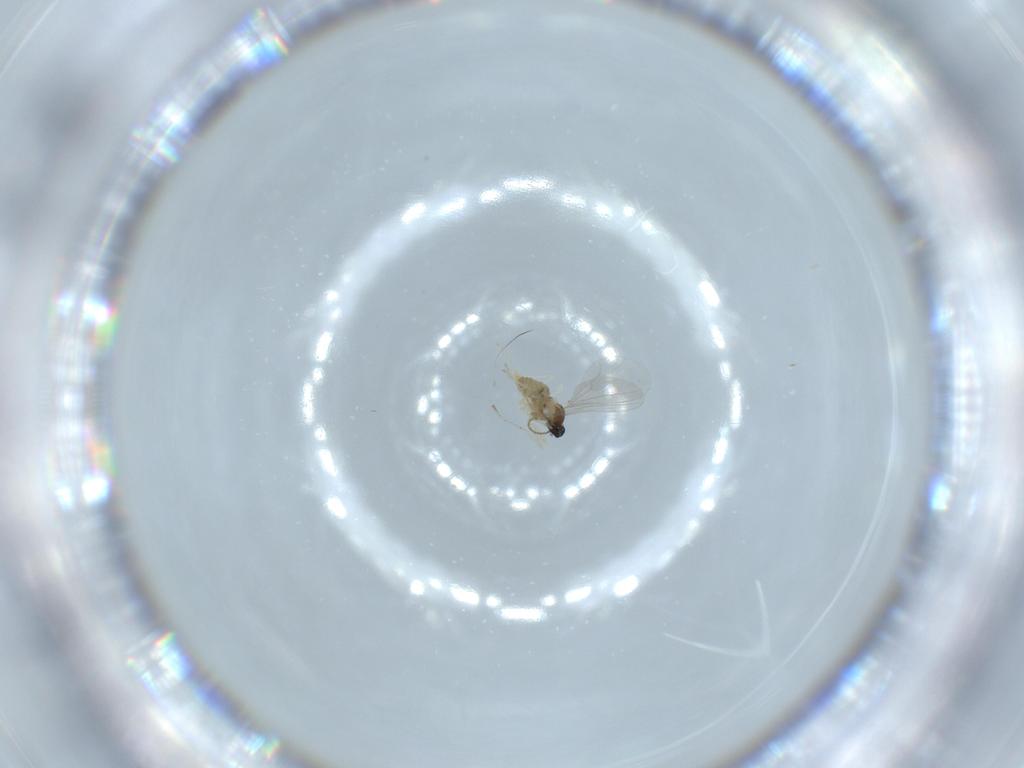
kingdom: Animalia
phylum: Arthropoda
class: Insecta
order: Diptera
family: Cecidomyiidae
